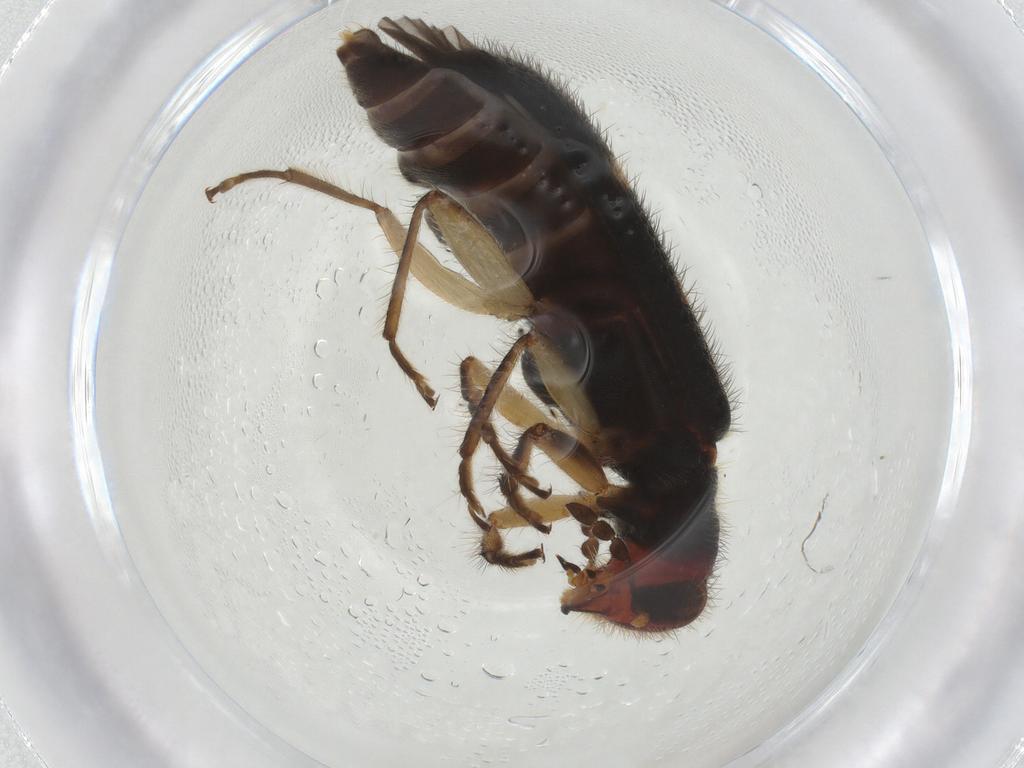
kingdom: Animalia
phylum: Arthropoda
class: Insecta
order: Coleoptera
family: Cleridae
